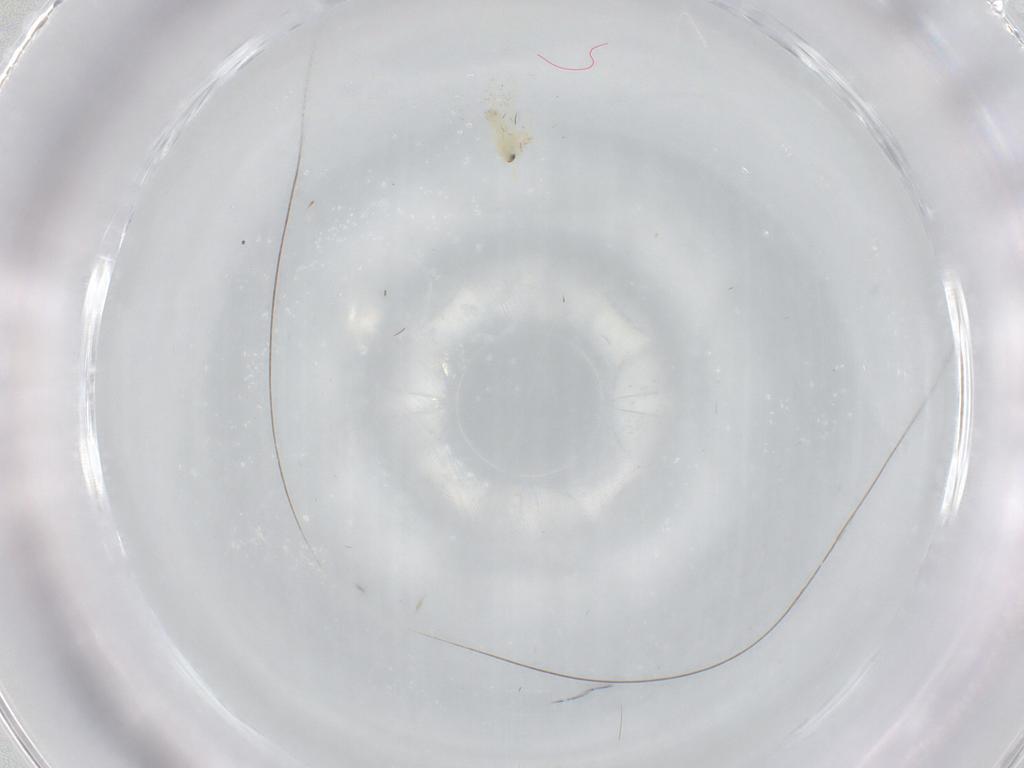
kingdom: Animalia
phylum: Arthropoda
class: Insecta
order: Hemiptera
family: Aleyrodidae
